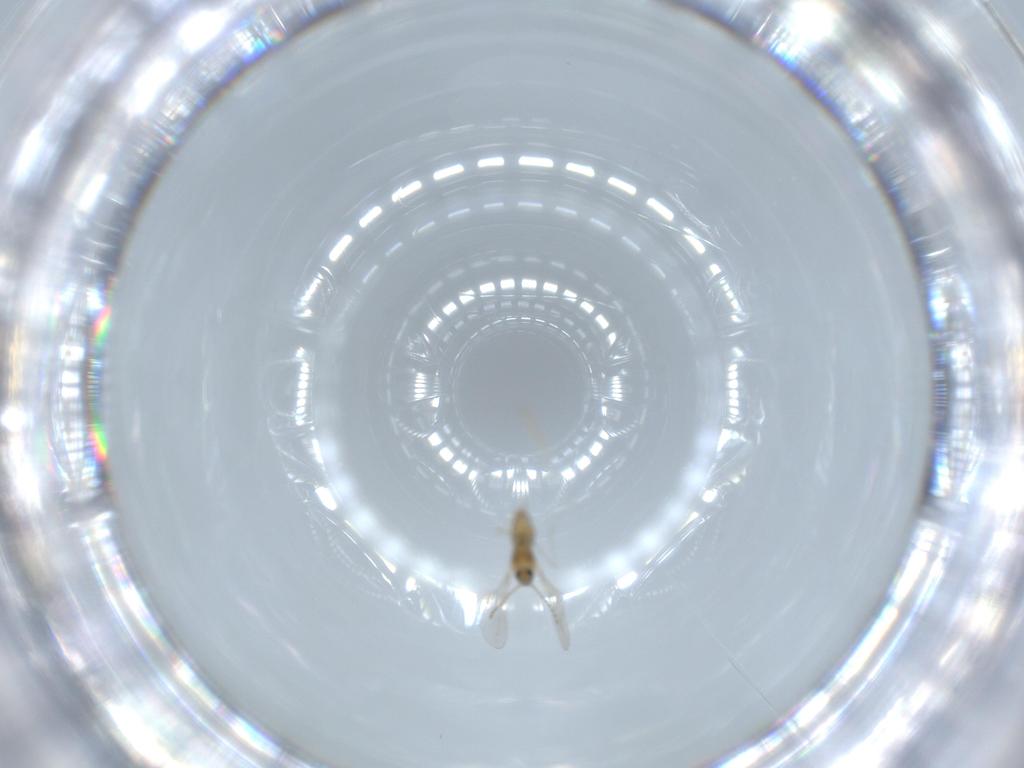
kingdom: Animalia
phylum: Arthropoda
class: Insecta
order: Diptera
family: Cecidomyiidae
